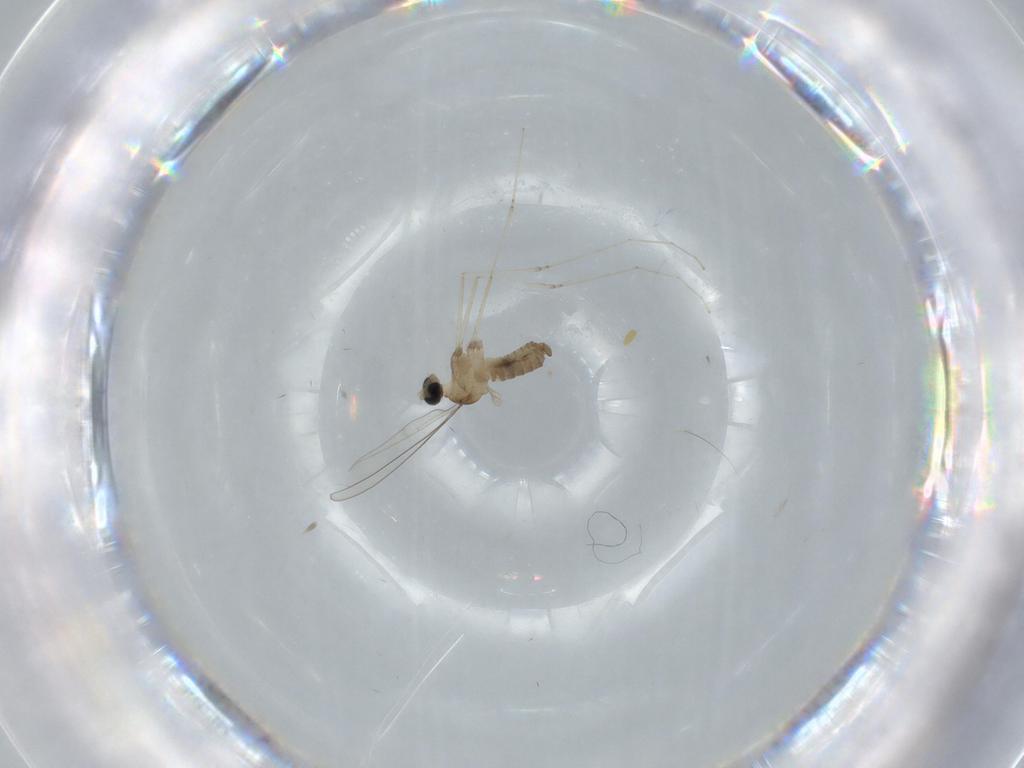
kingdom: Animalia
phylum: Arthropoda
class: Insecta
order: Diptera
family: Cecidomyiidae
